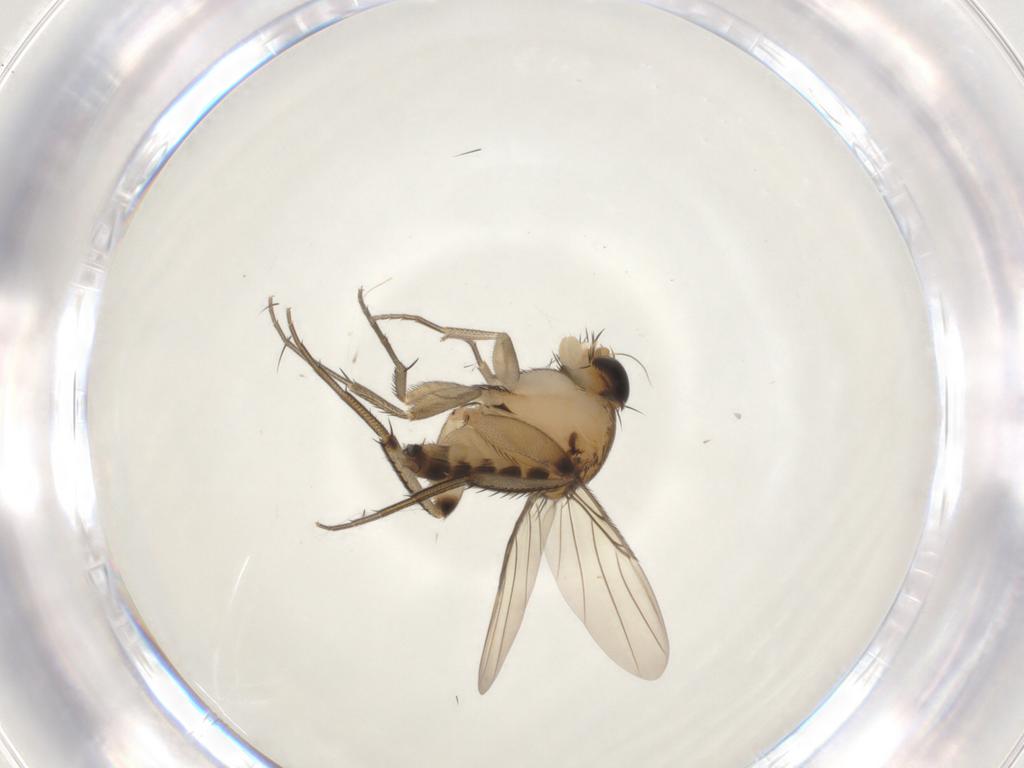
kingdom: Animalia
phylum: Arthropoda
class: Insecta
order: Diptera
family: Phoridae
